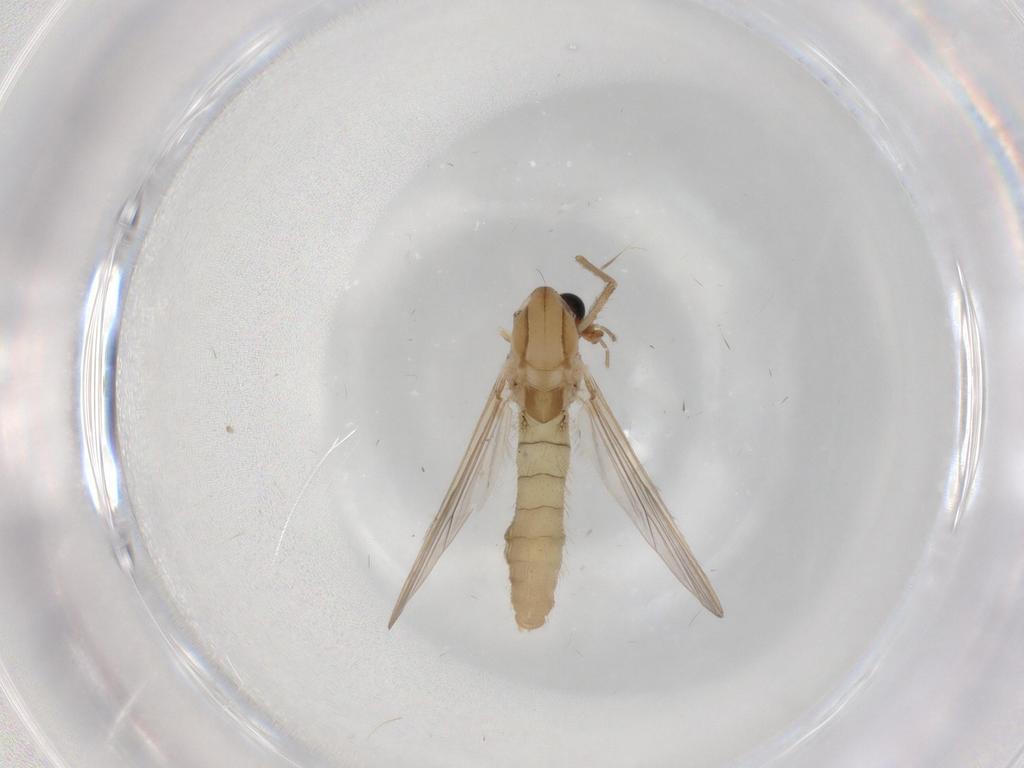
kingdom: Animalia
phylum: Arthropoda
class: Insecta
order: Diptera
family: Chironomidae
